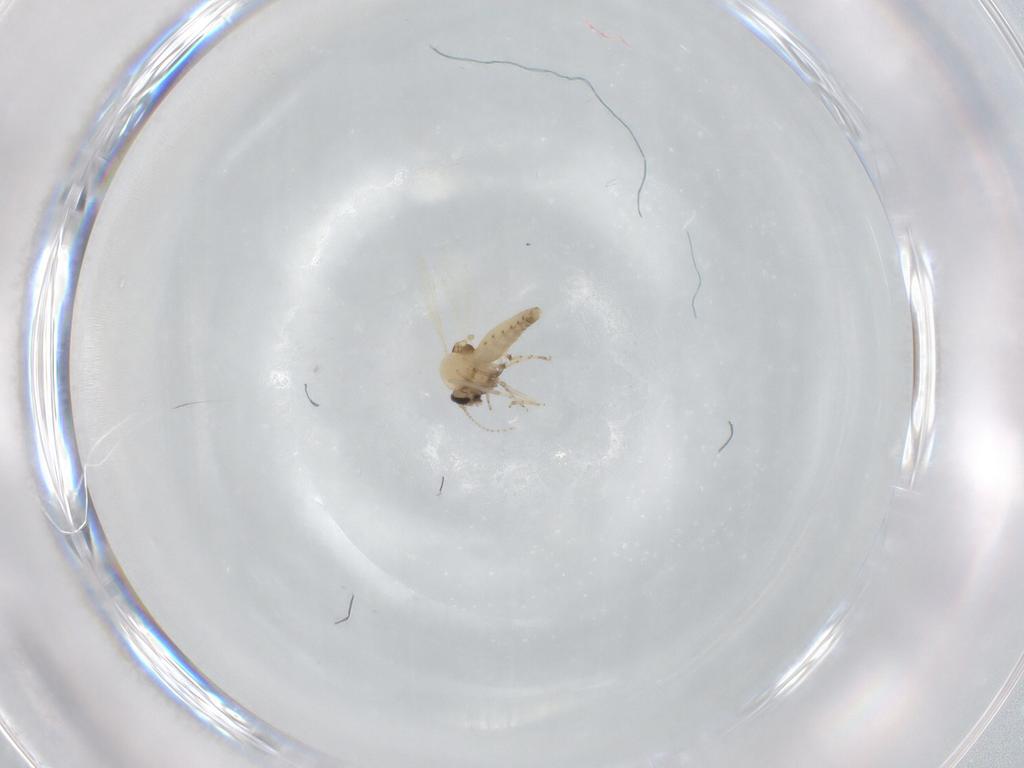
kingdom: Animalia
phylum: Arthropoda
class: Insecta
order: Diptera
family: Ceratopogonidae
